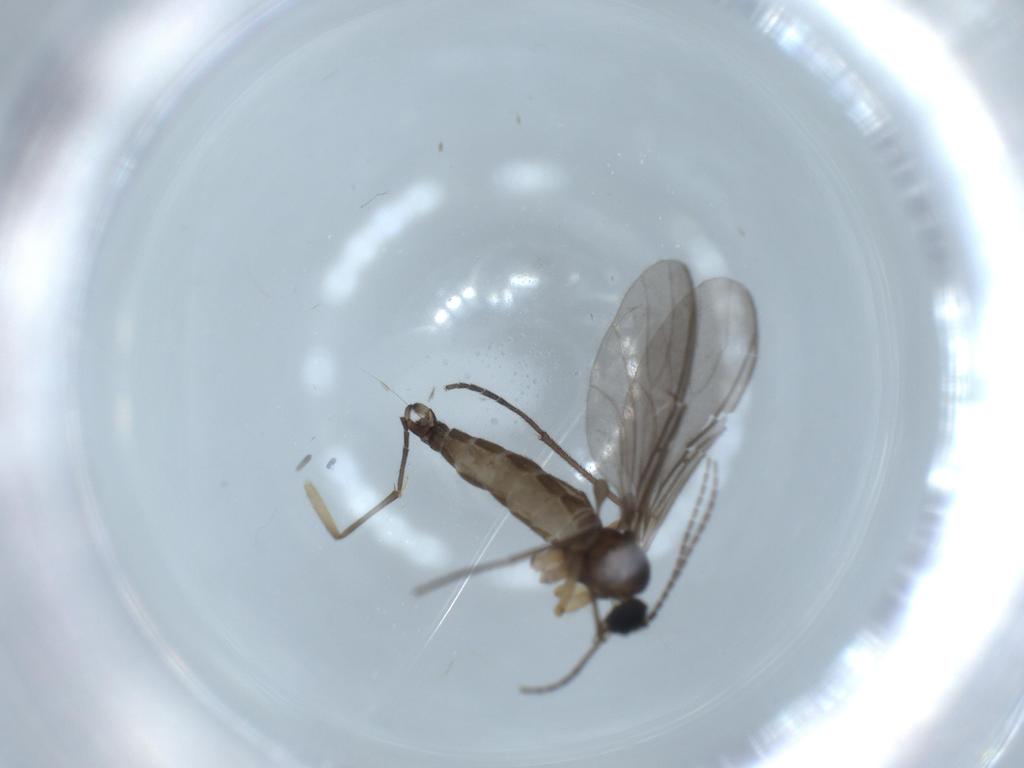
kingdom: Animalia
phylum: Arthropoda
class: Insecta
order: Diptera
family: Sciaridae
